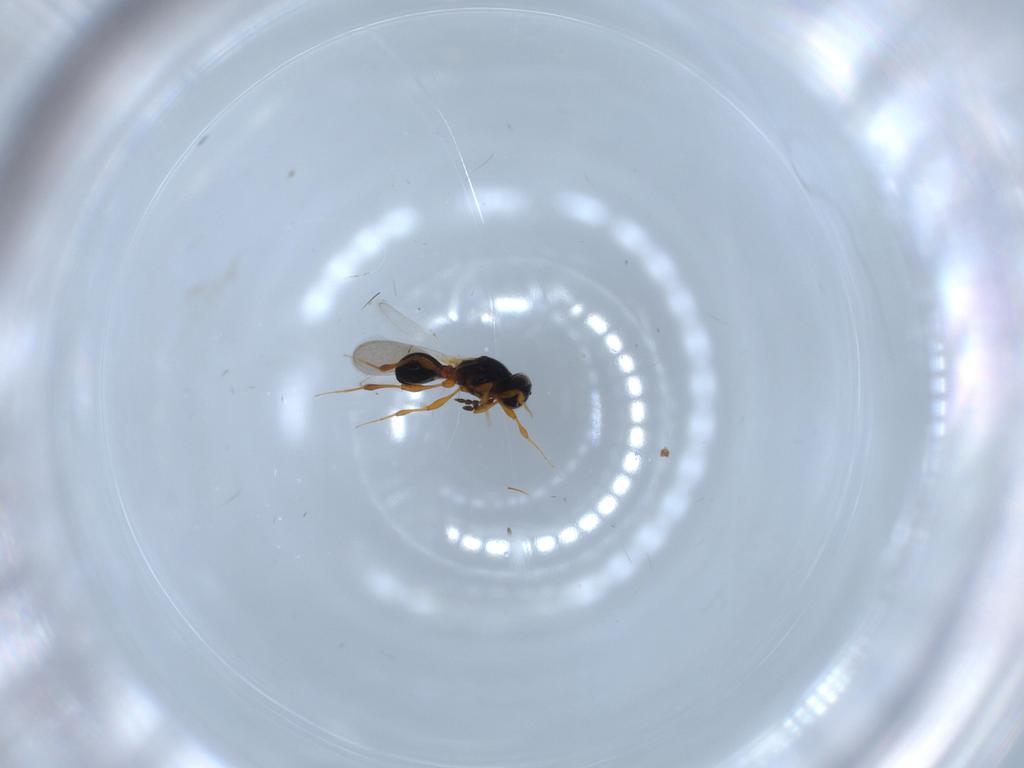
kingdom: Animalia
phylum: Arthropoda
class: Insecta
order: Hymenoptera
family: Platygastridae
